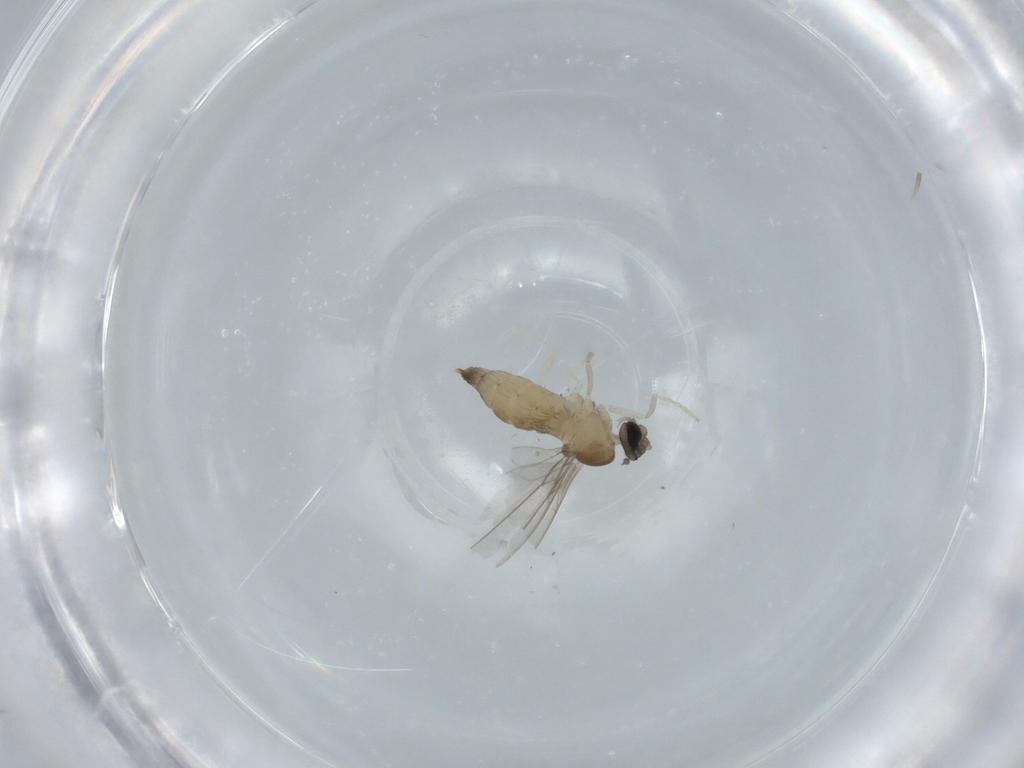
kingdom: Animalia
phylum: Arthropoda
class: Insecta
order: Diptera
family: Cecidomyiidae
